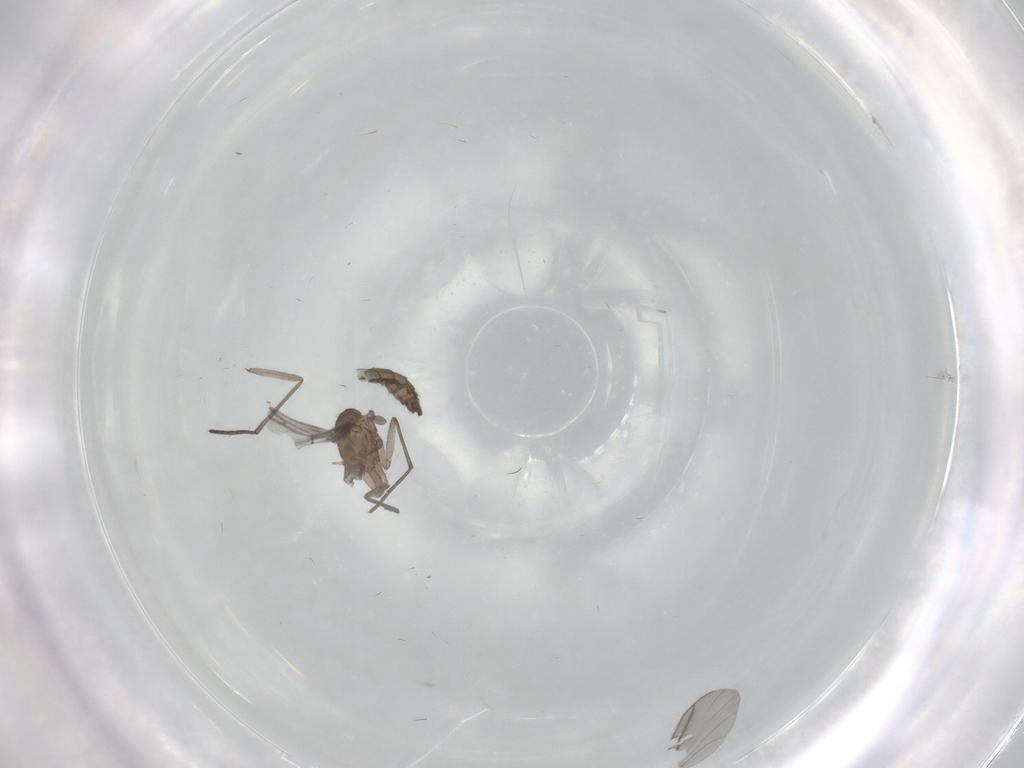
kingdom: Animalia
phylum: Arthropoda
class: Insecta
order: Diptera
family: Sciaridae
